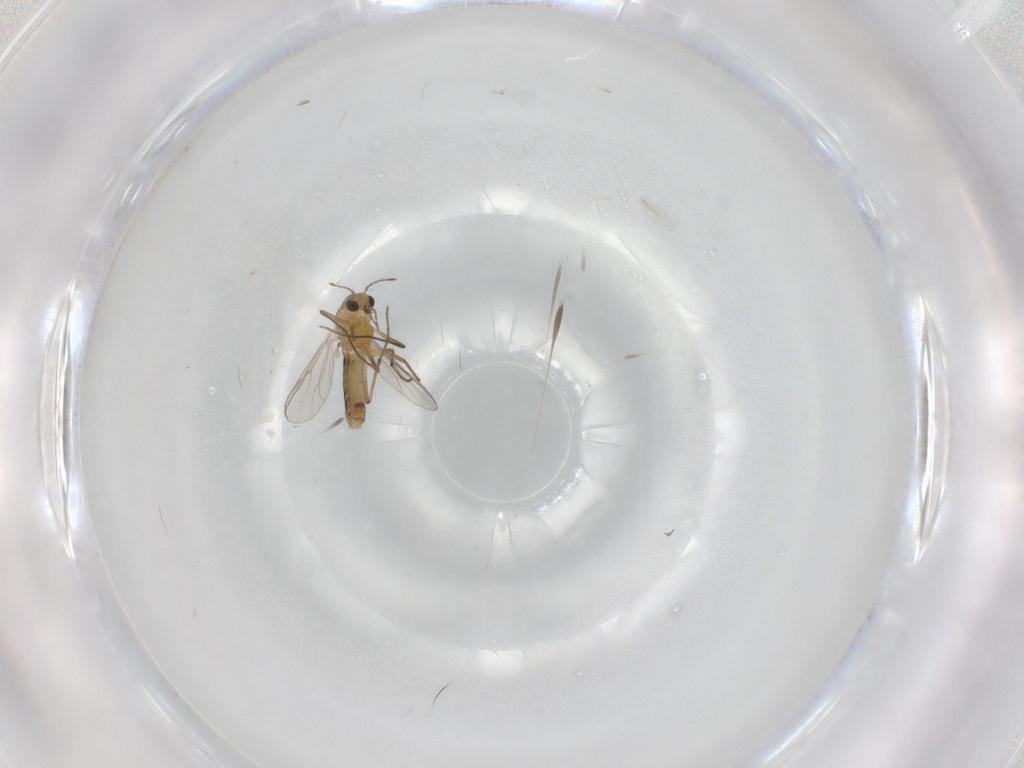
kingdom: Animalia
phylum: Arthropoda
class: Insecta
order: Diptera
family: Chironomidae
